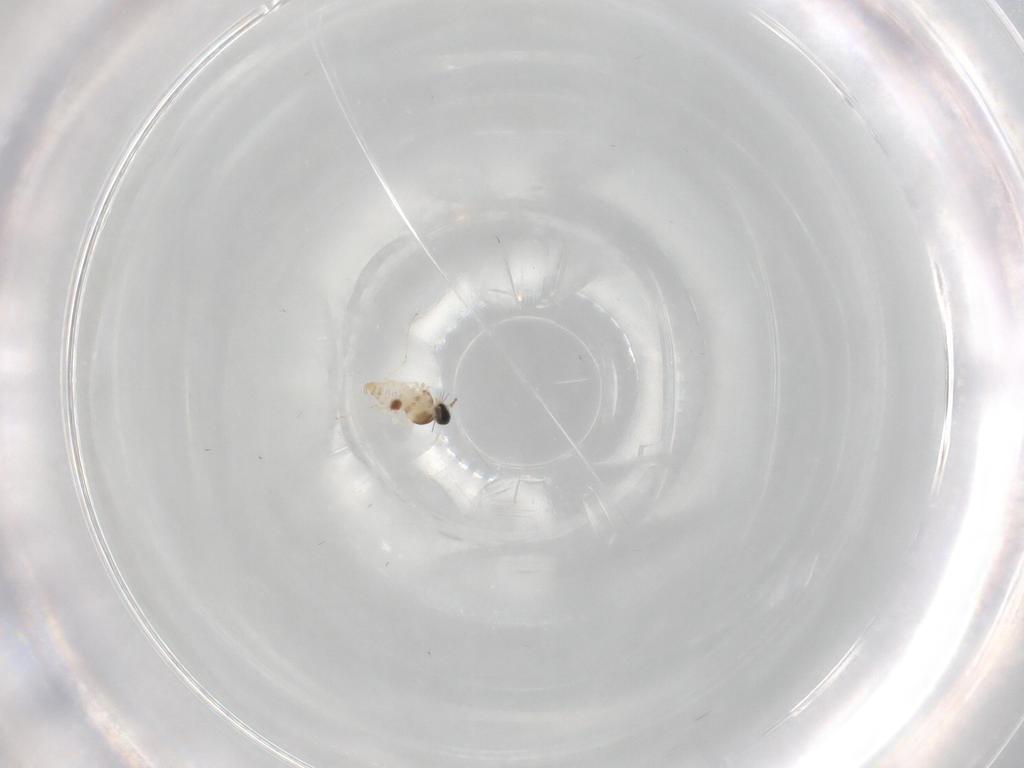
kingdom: Animalia
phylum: Arthropoda
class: Insecta
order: Diptera
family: Cecidomyiidae
